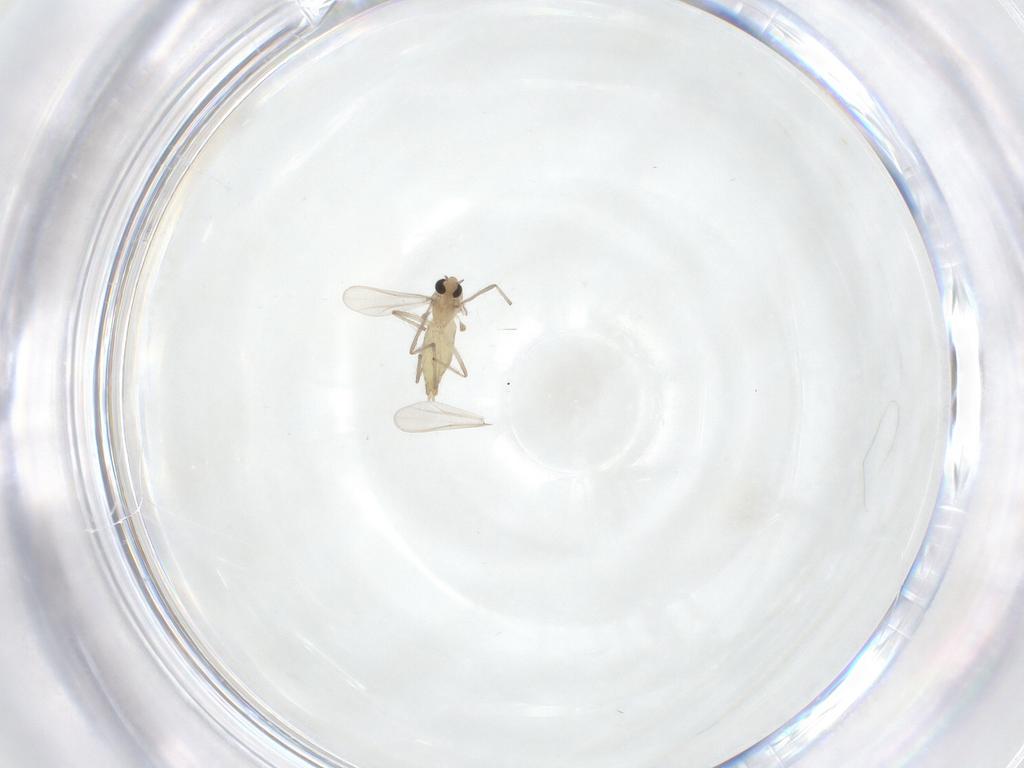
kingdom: Animalia
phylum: Arthropoda
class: Insecta
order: Diptera
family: Chironomidae
